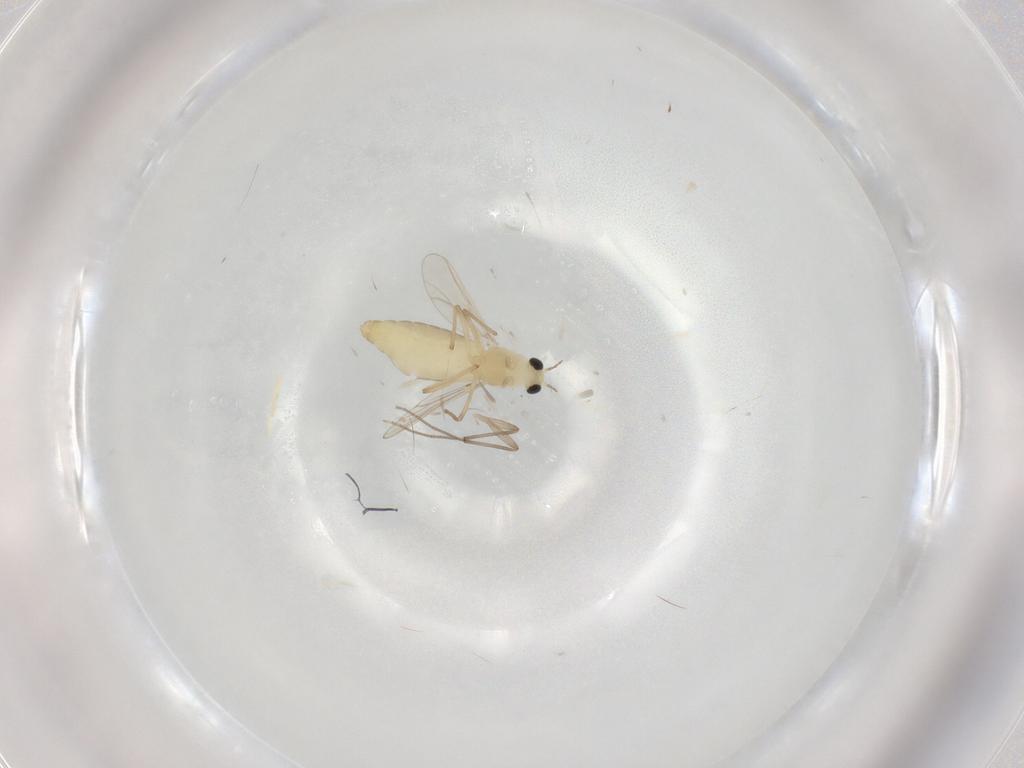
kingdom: Animalia
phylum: Arthropoda
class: Insecta
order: Diptera
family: Chironomidae
